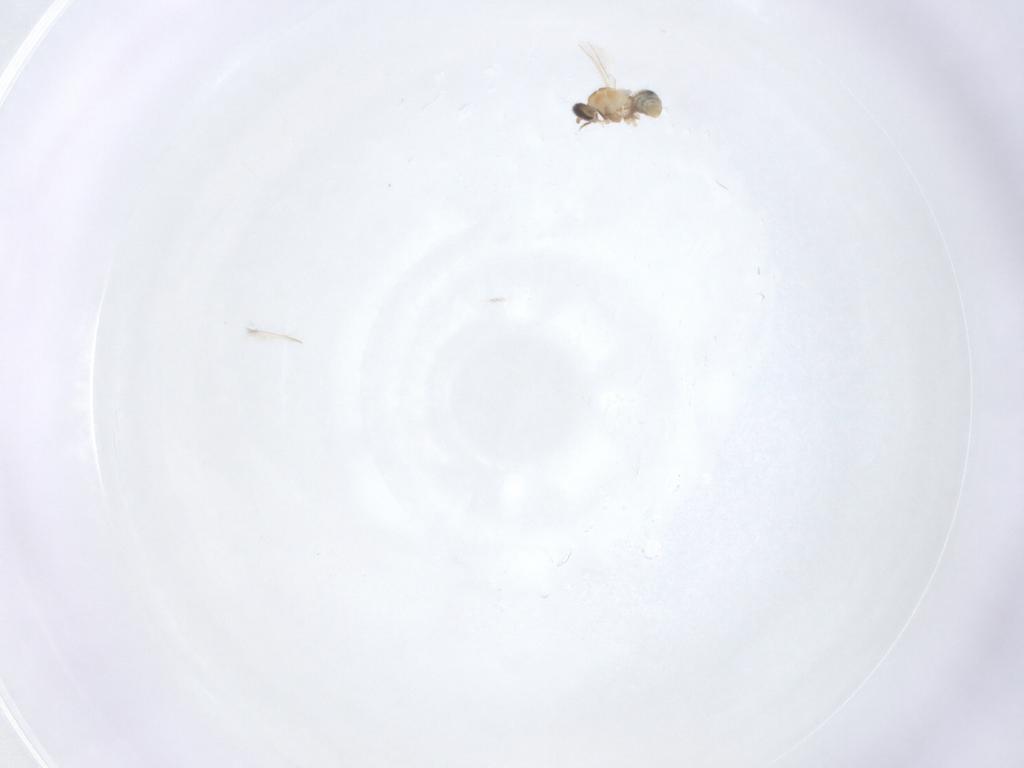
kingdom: Animalia
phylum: Arthropoda
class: Insecta
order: Diptera
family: Cecidomyiidae
